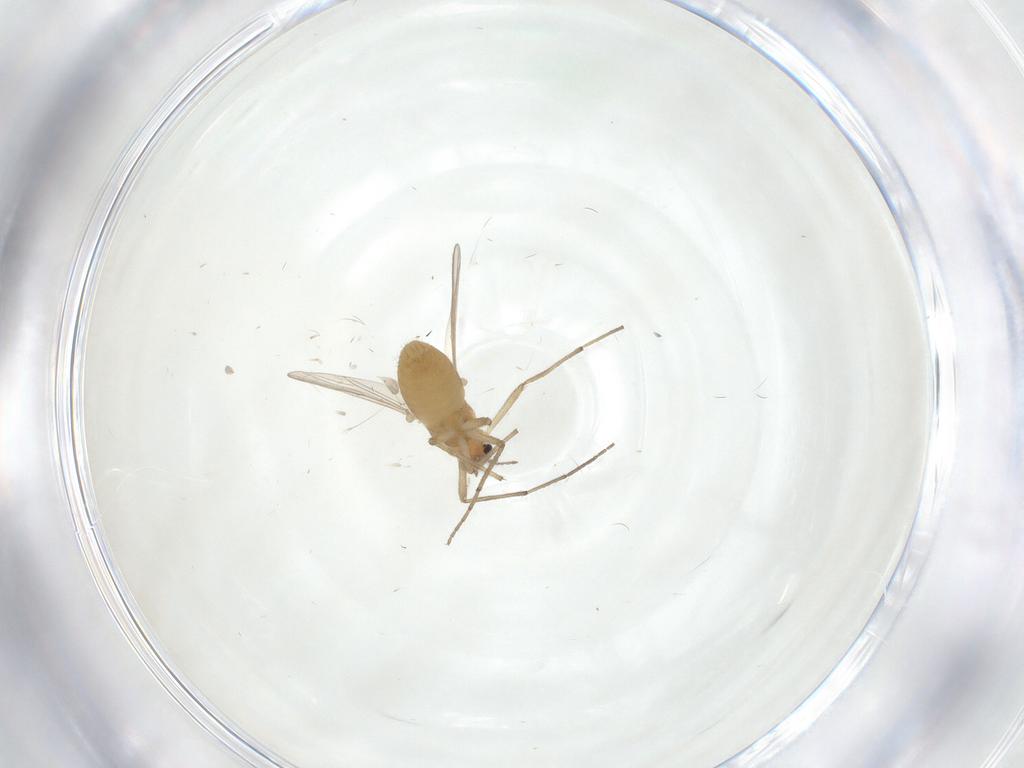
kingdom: Animalia
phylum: Arthropoda
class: Insecta
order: Diptera
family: Chironomidae
